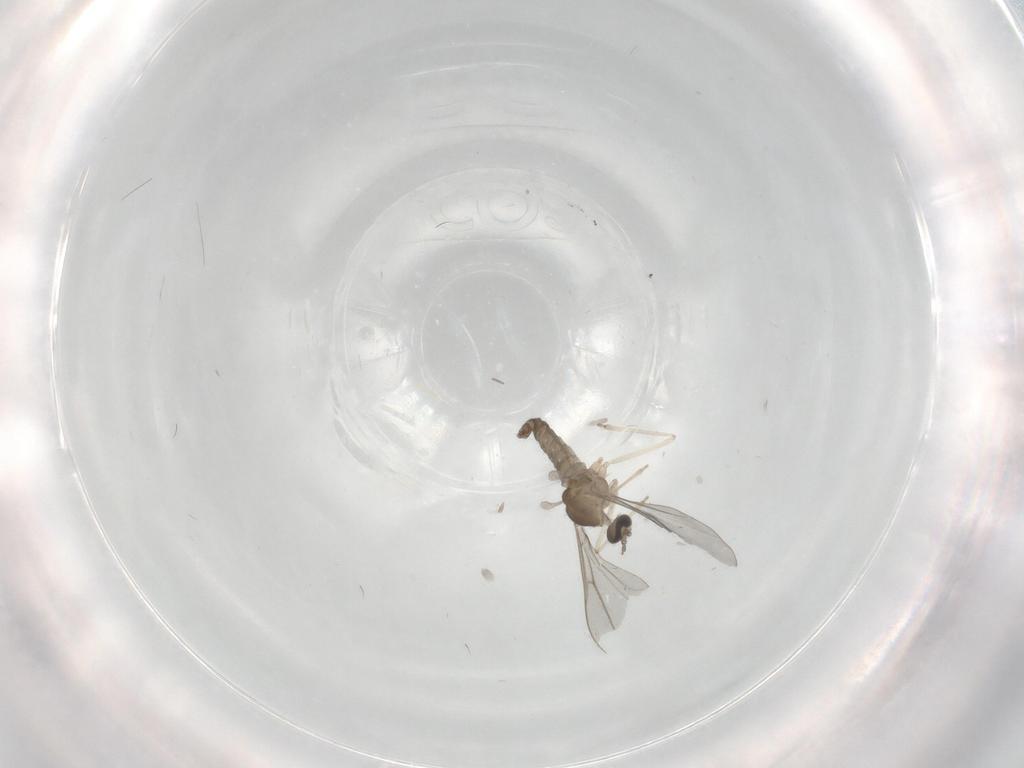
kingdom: Animalia
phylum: Arthropoda
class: Insecta
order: Diptera
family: Cecidomyiidae
